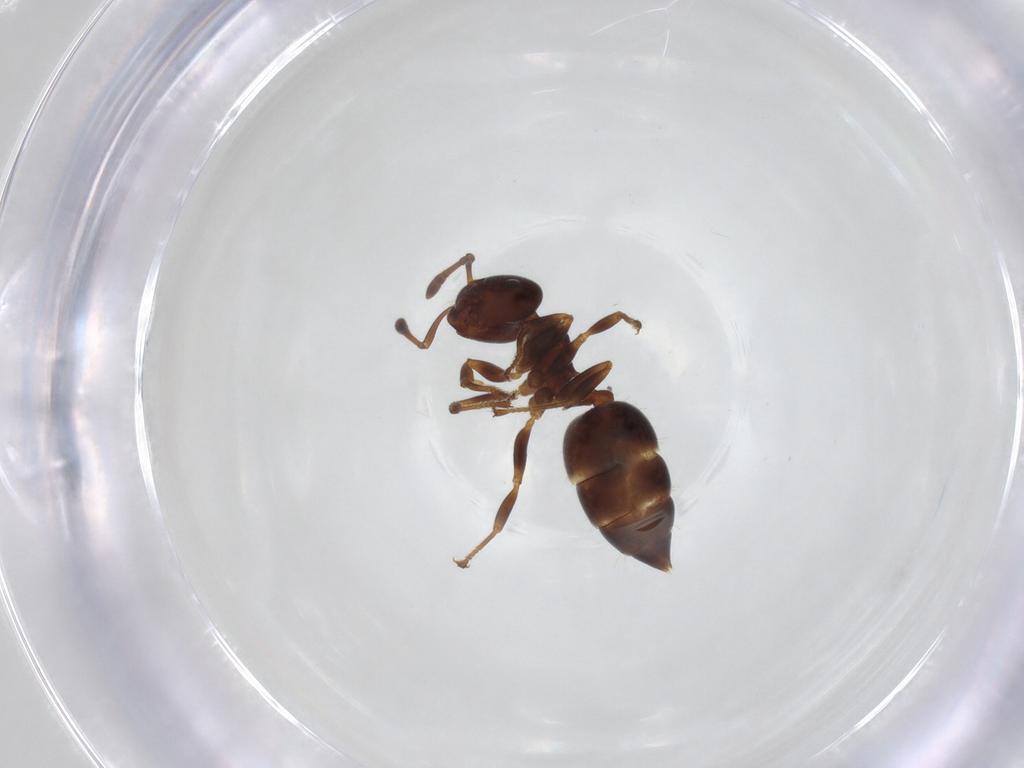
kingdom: Animalia
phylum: Arthropoda
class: Insecta
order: Hymenoptera
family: Formicidae
